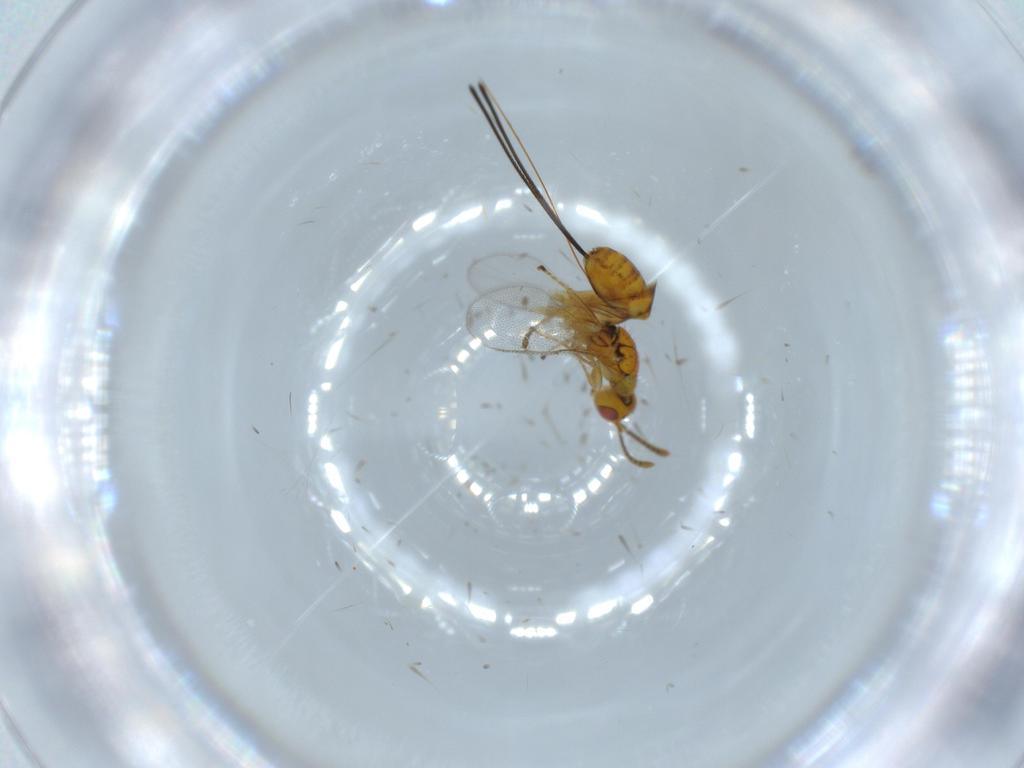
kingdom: Animalia
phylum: Arthropoda
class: Insecta
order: Hymenoptera
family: Megastigmidae
